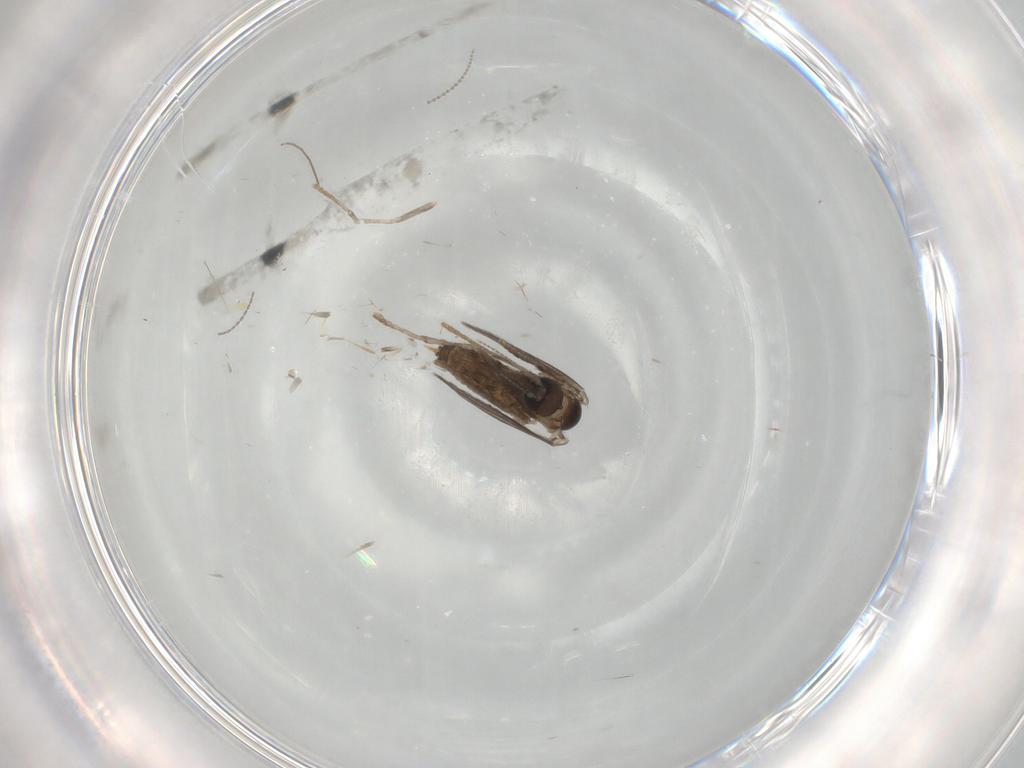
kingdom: Animalia
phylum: Arthropoda
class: Insecta
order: Diptera
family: Psychodidae
